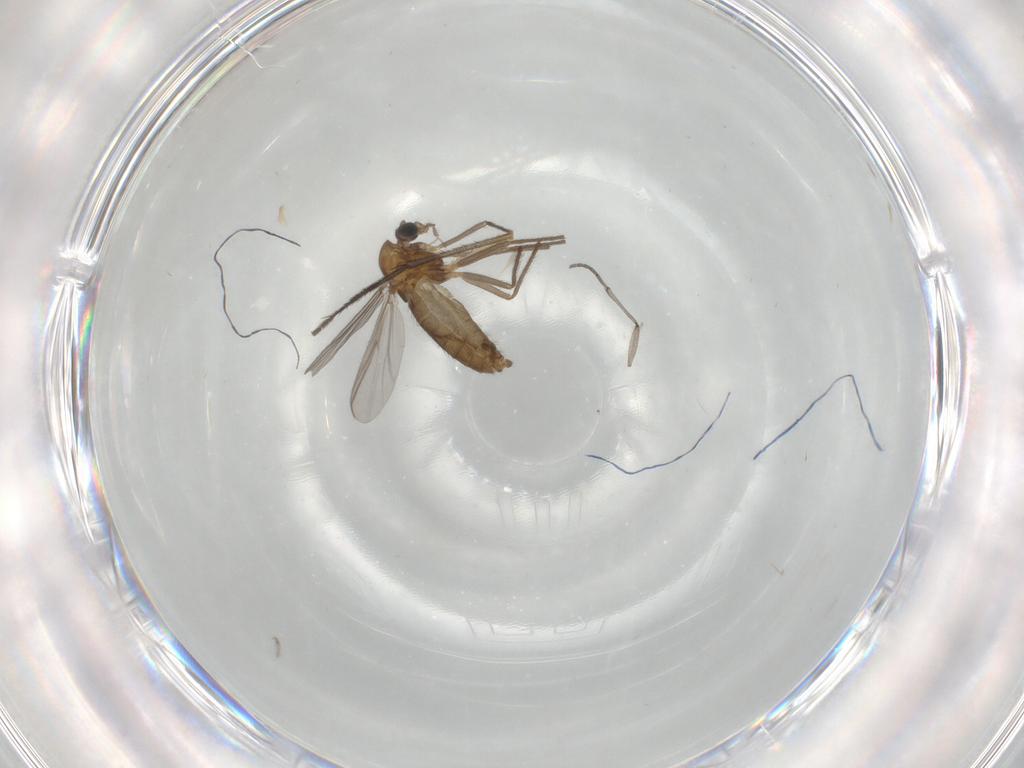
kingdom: Animalia
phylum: Arthropoda
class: Insecta
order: Diptera
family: Chironomidae
